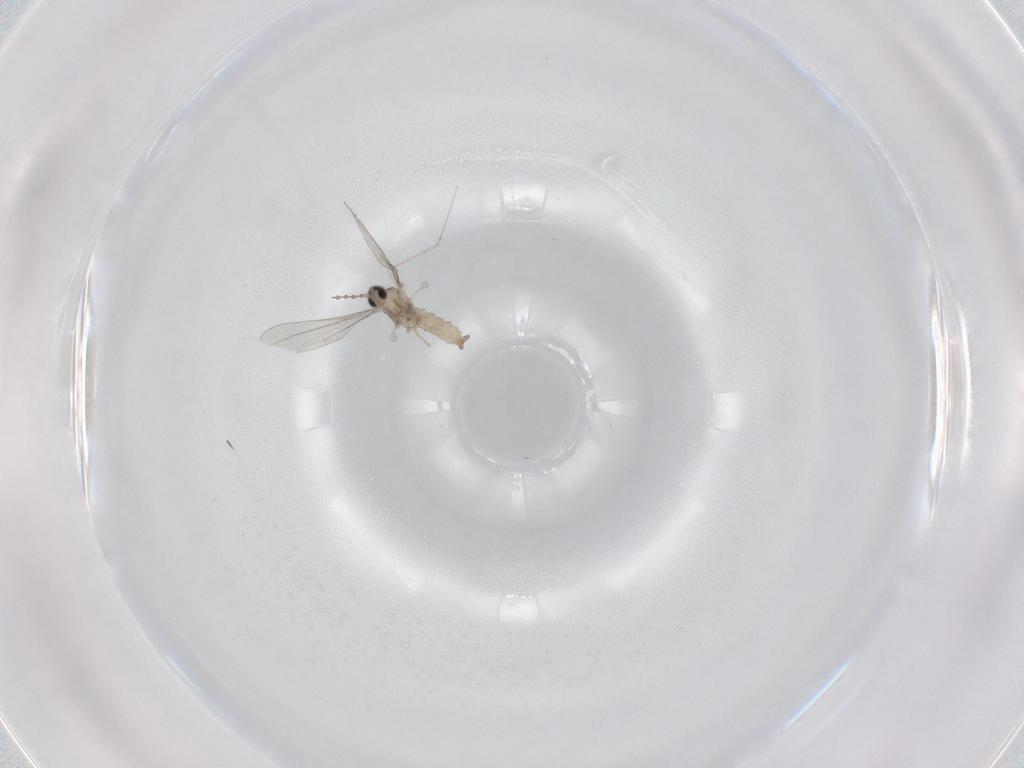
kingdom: Animalia
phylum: Arthropoda
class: Insecta
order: Diptera
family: Cecidomyiidae
